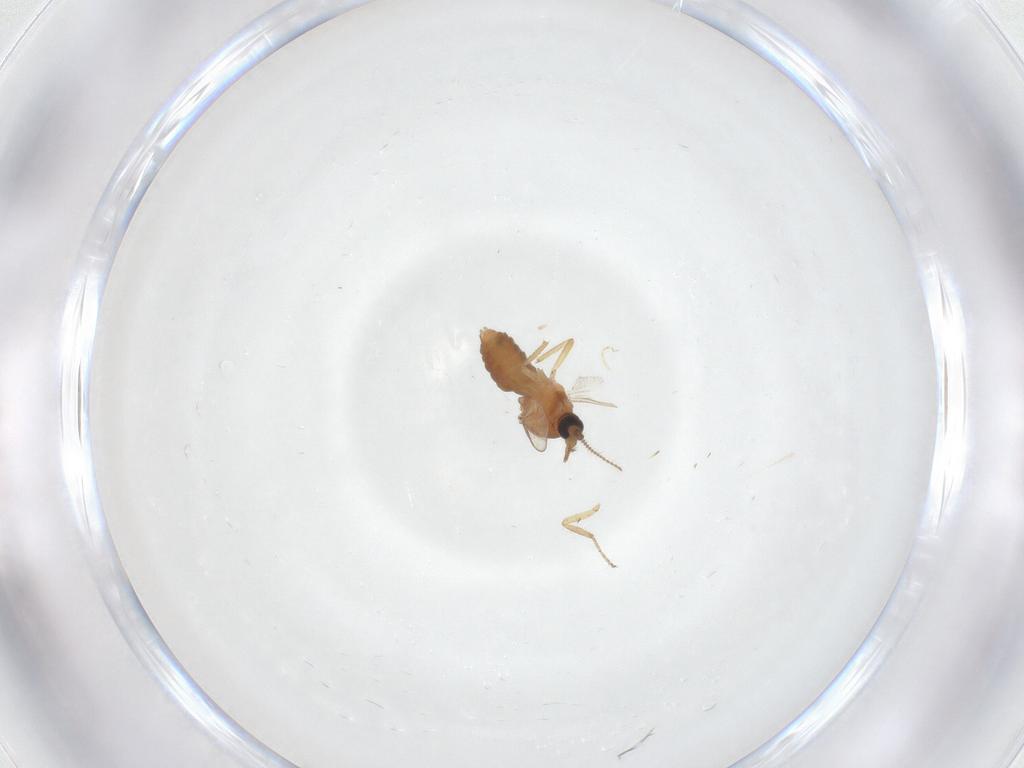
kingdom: Animalia
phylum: Arthropoda
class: Insecta
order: Diptera
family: Ceratopogonidae
